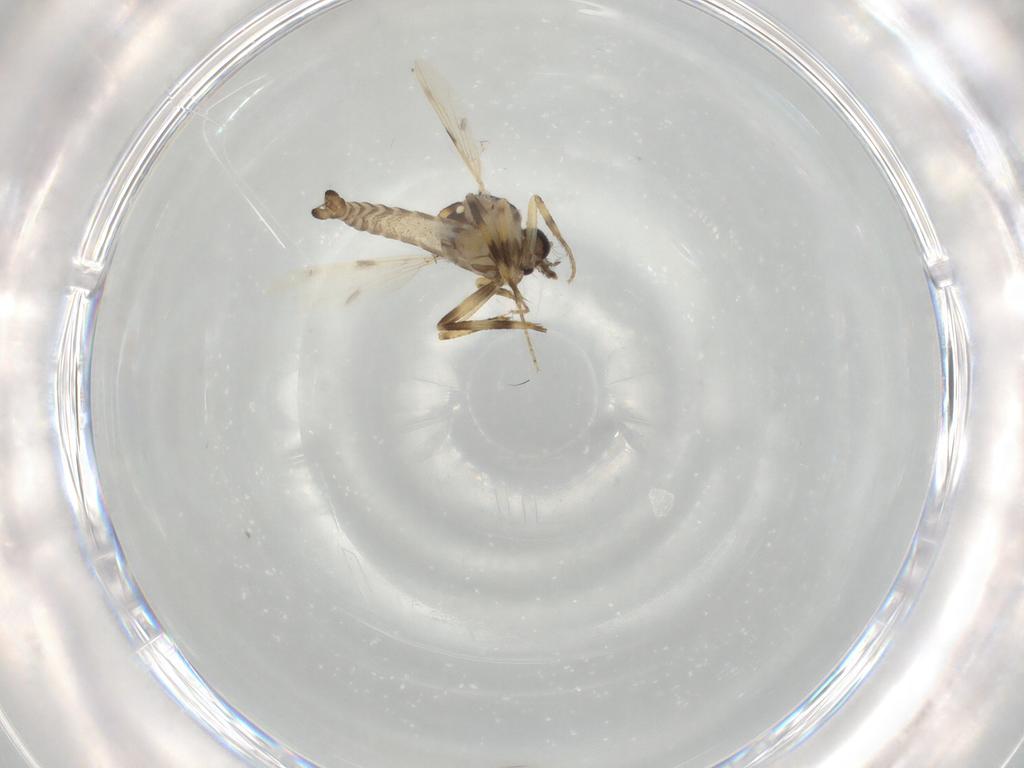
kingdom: Animalia
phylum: Arthropoda
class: Insecta
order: Diptera
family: Ceratopogonidae
